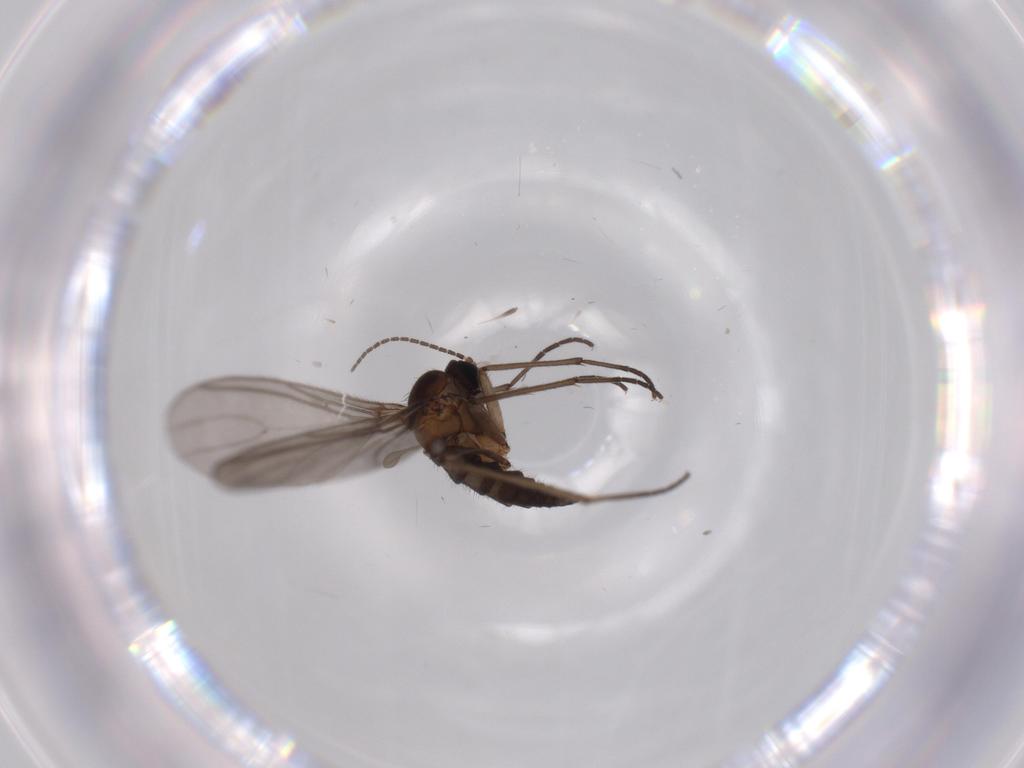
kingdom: Animalia
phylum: Arthropoda
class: Insecta
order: Diptera
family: Sciaridae
